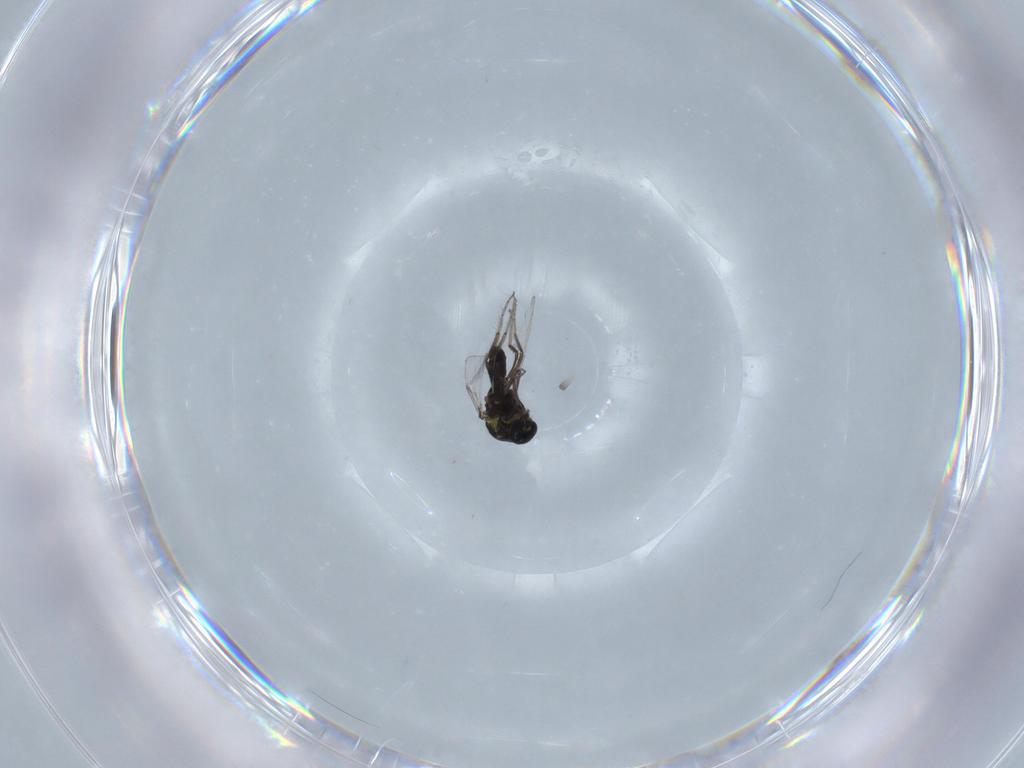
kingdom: Animalia
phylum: Arthropoda
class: Insecta
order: Diptera
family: Ceratopogonidae
